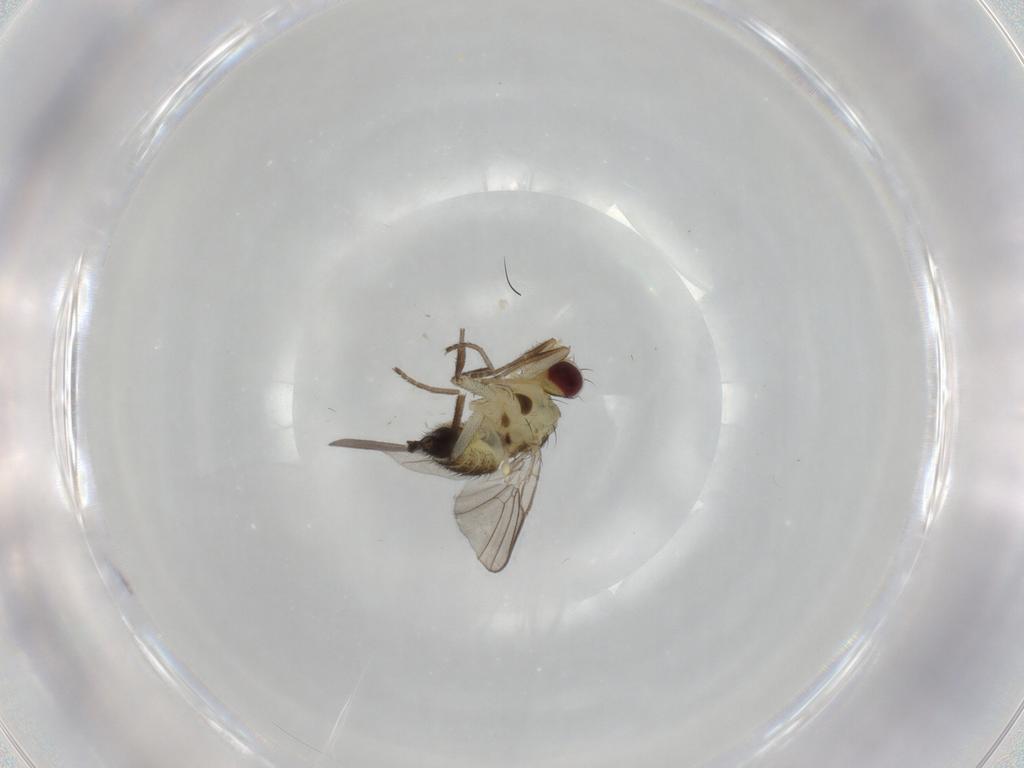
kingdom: Animalia
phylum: Arthropoda
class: Insecta
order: Diptera
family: Agromyzidae
